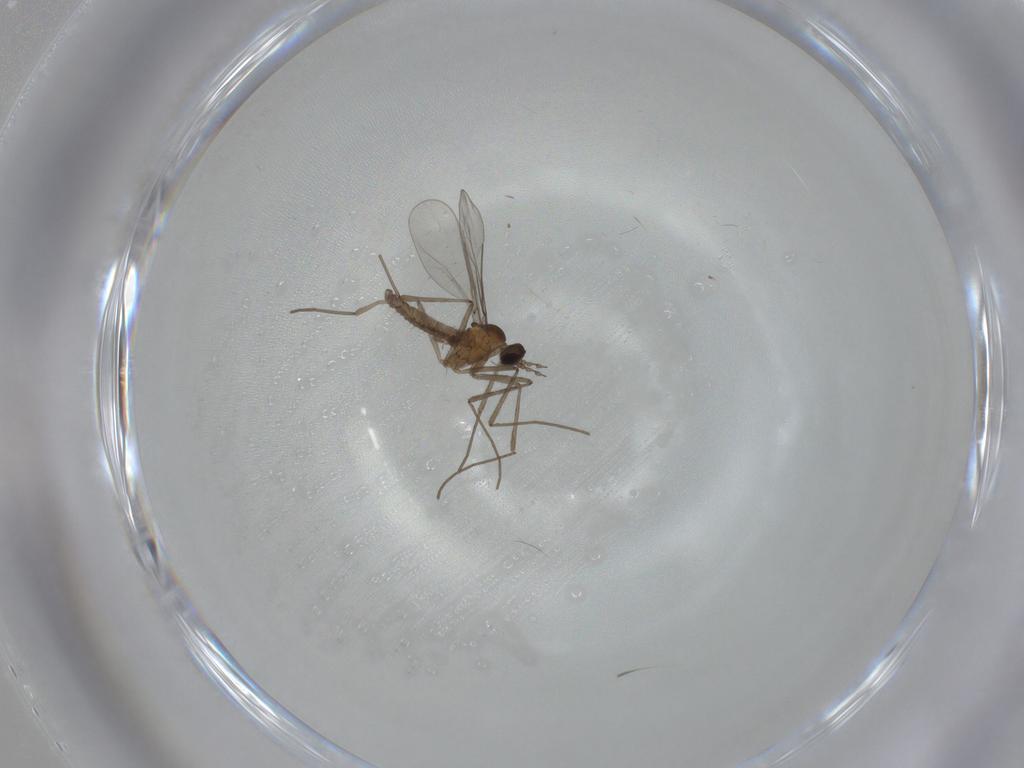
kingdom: Animalia
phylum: Arthropoda
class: Insecta
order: Diptera
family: Cecidomyiidae
